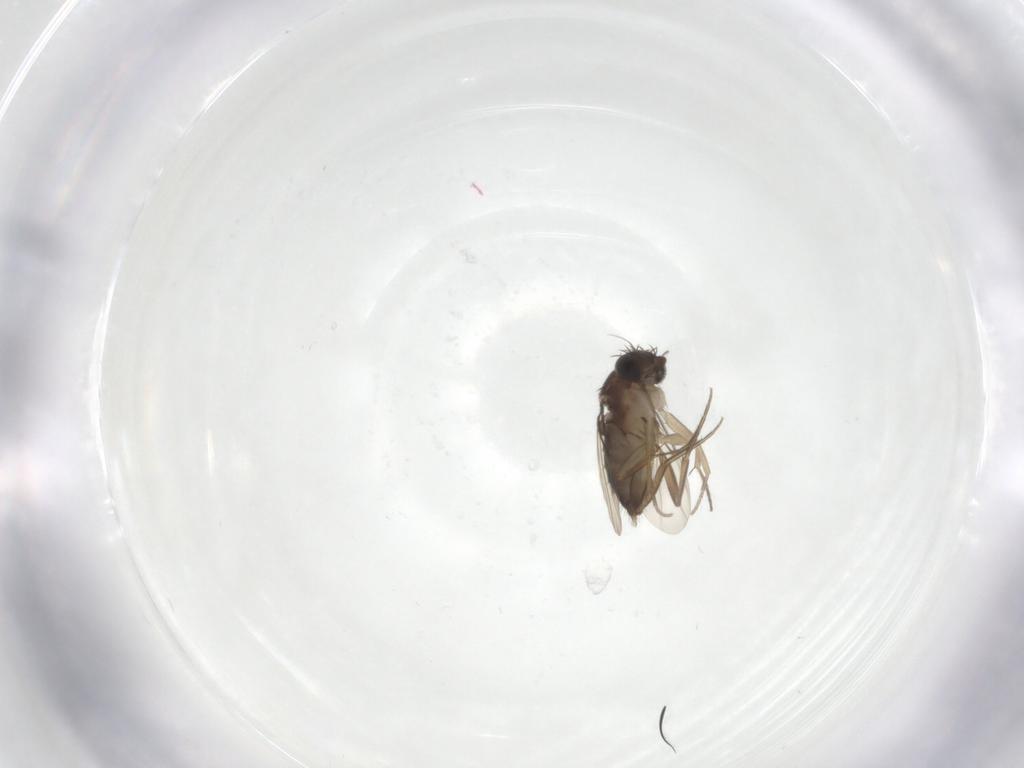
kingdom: Animalia
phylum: Arthropoda
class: Insecta
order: Diptera
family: Phoridae
